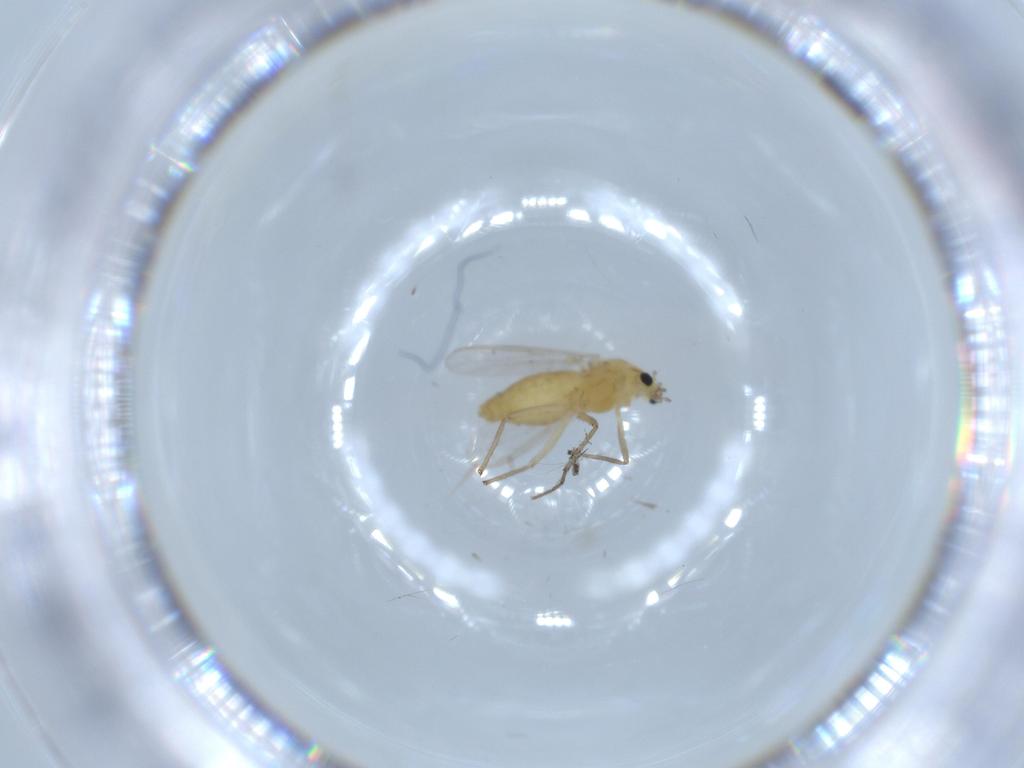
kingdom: Animalia
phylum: Arthropoda
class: Insecta
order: Diptera
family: Chironomidae
